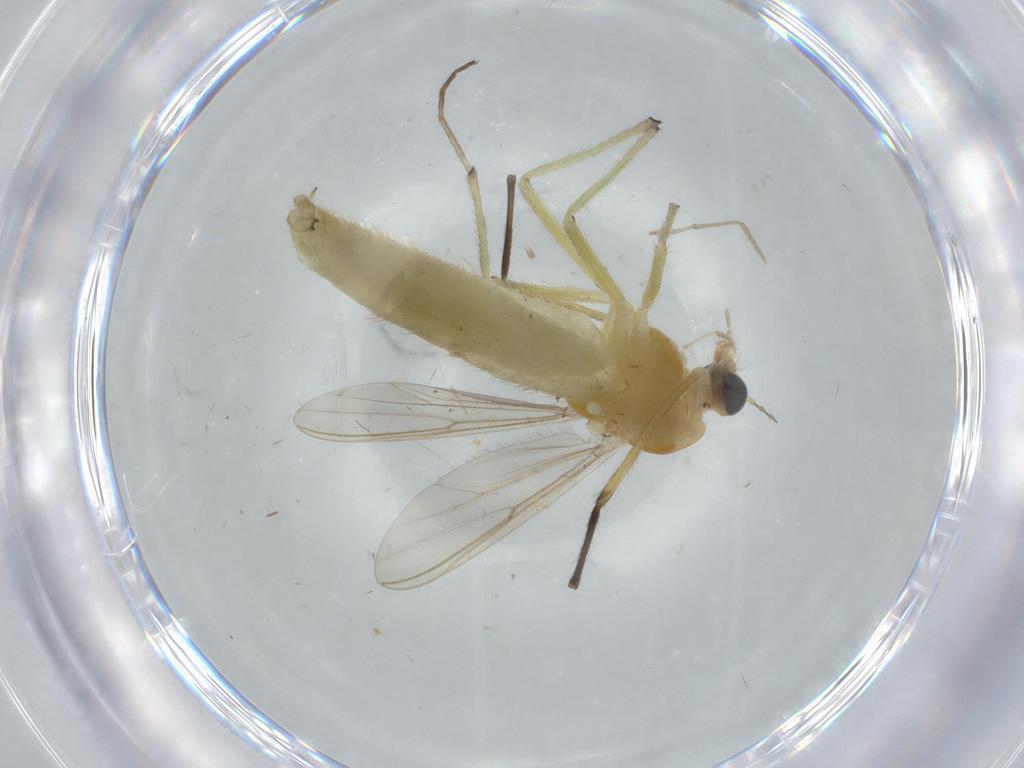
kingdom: Animalia
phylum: Arthropoda
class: Insecta
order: Diptera
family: Chironomidae
